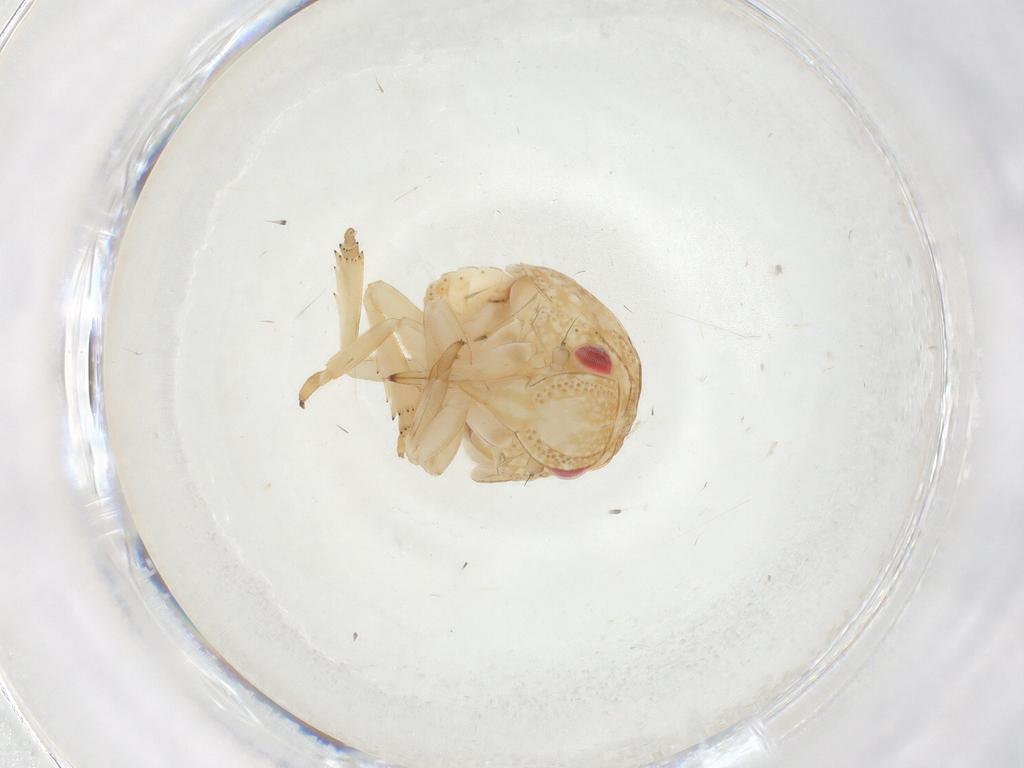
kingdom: Animalia
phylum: Arthropoda
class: Insecta
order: Hemiptera
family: Acanaloniidae
